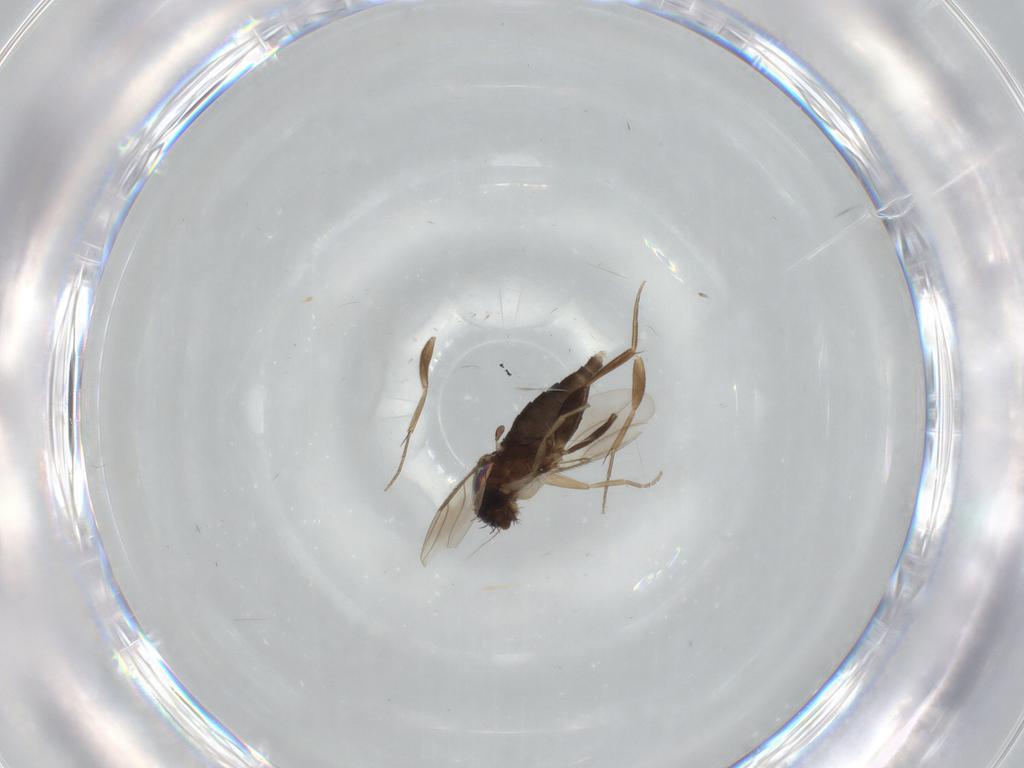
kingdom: Animalia
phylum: Arthropoda
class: Insecta
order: Diptera
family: Phoridae
